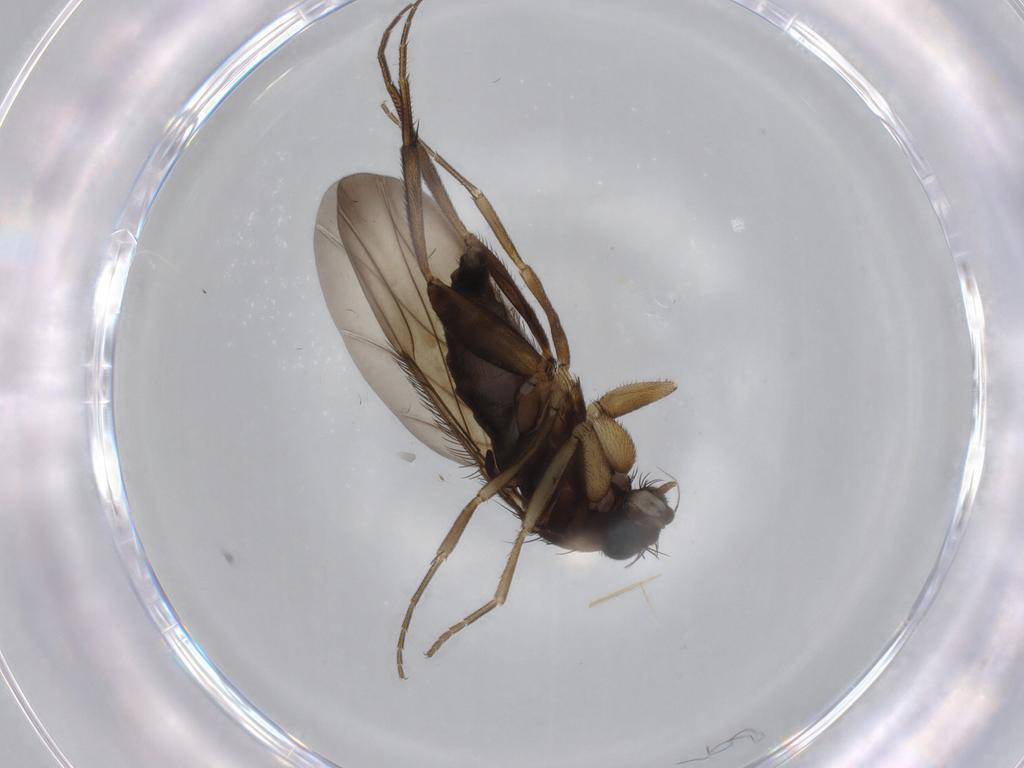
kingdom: Animalia
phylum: Arthropoda
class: Insecta
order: Diptera
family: Phoridae
